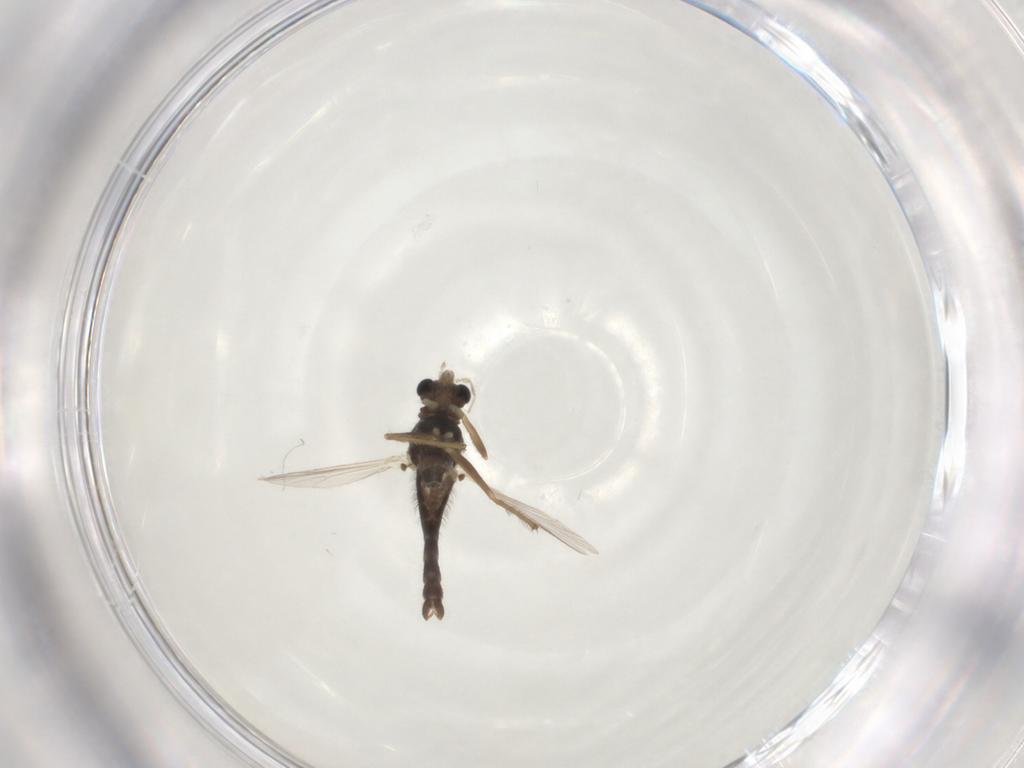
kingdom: Animalia
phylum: Arthropoda
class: Insecta
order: Diptera
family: Chironomidae
